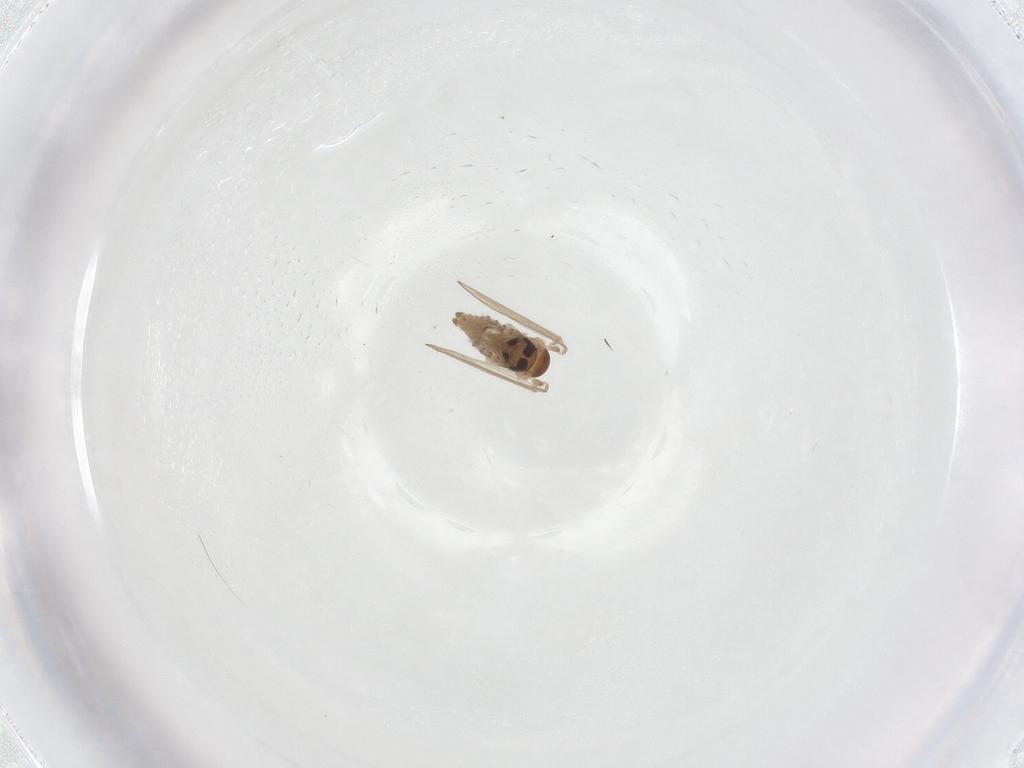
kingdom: Animalia
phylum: Arthropoda
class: Insecta
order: Diptera
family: Psychodidae
